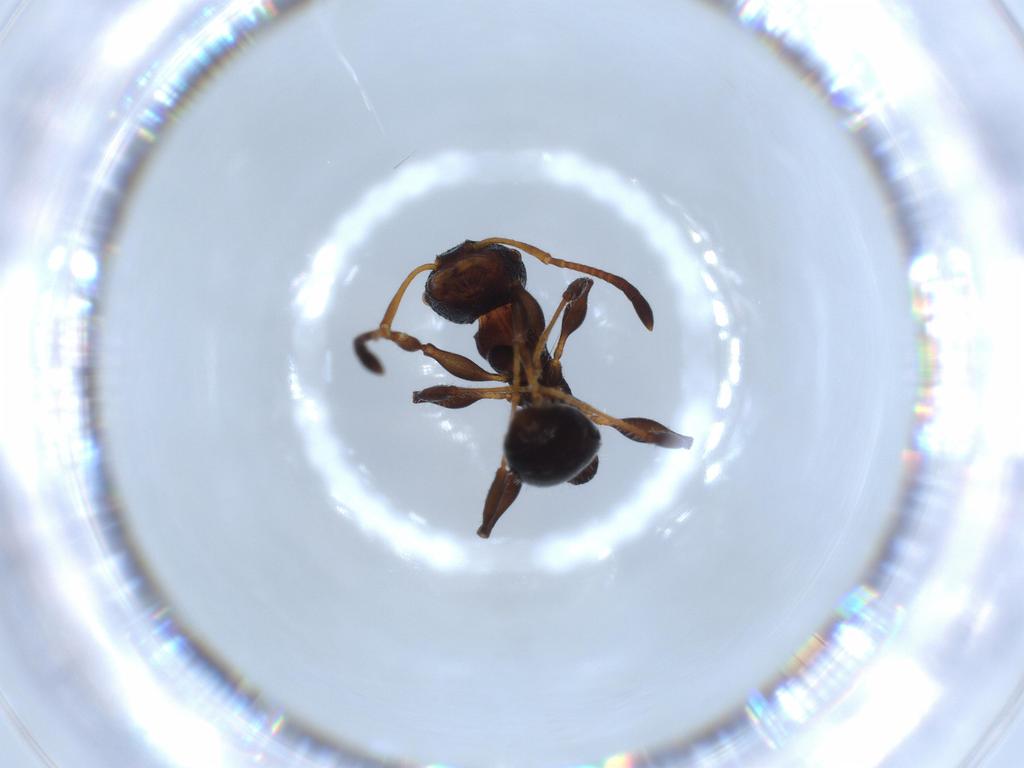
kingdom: Animalia
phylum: Arthropoda
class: Insecta
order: Hymenoptera
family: Formicidae
